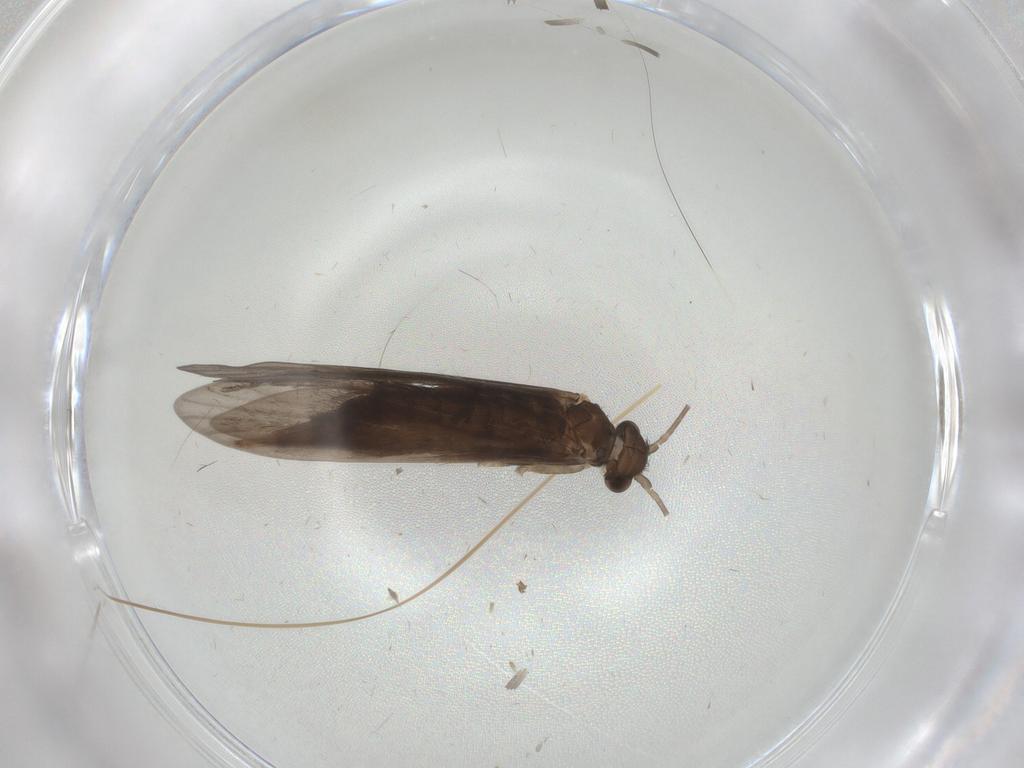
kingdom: Animalia
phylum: Arthropoda
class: Insecta
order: Trichoptera
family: Xiphocentronidae
